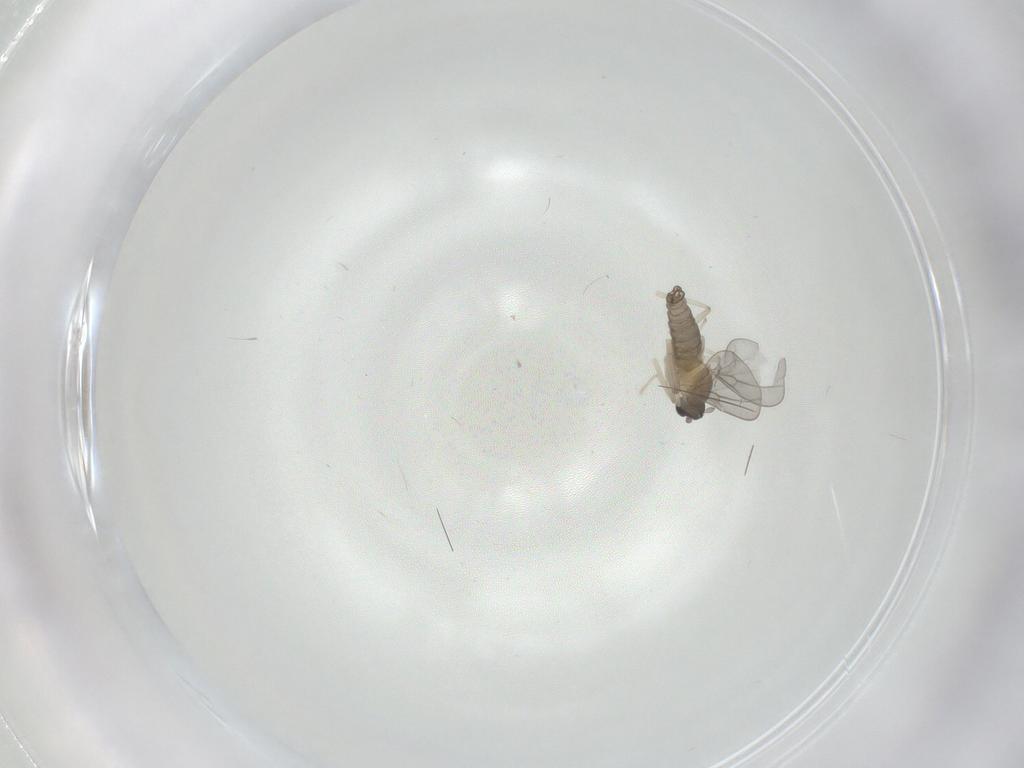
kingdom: Animalia
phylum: Arthropoda
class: Insecta
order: Diptera
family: Cecidomyiidae
